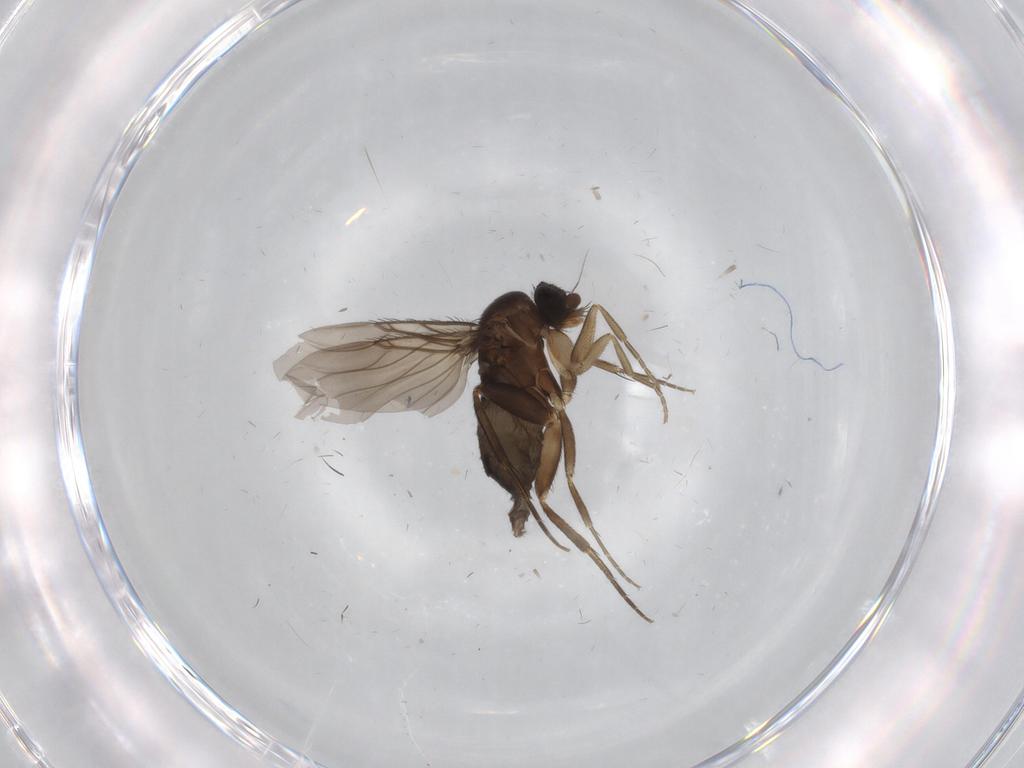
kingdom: Animalia
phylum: Arthropoda
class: Insecta
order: Diptera
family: Phoridae
